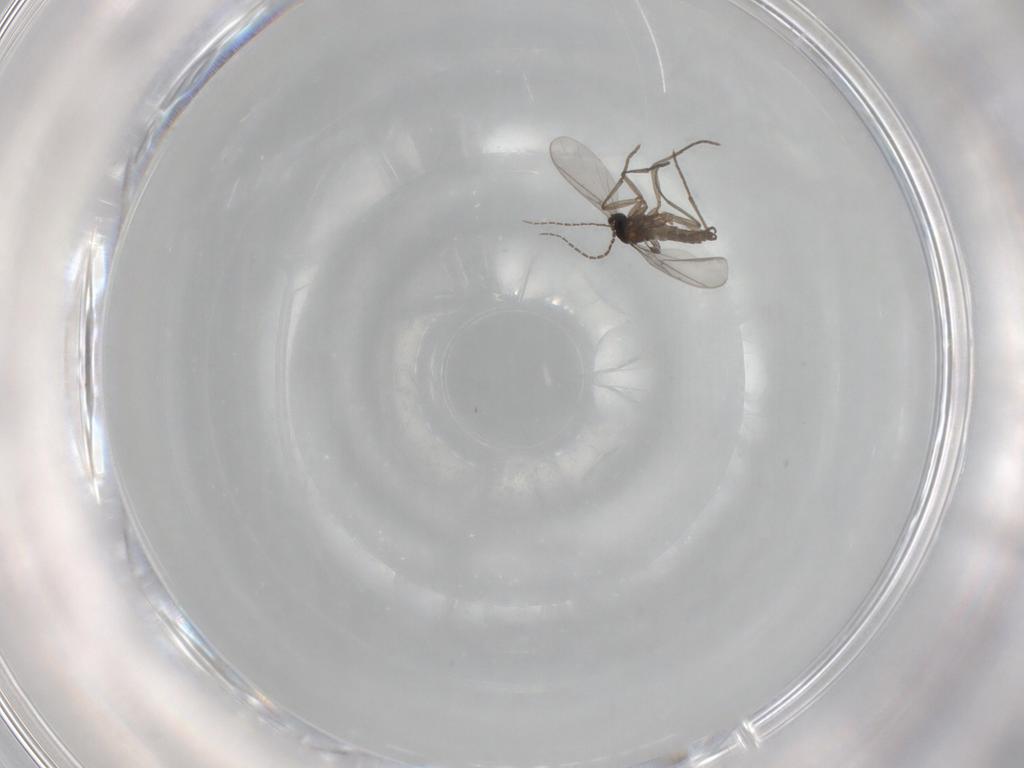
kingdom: Animalia
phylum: Arthropoda
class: Insecta
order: Diptera
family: Sciaridae
